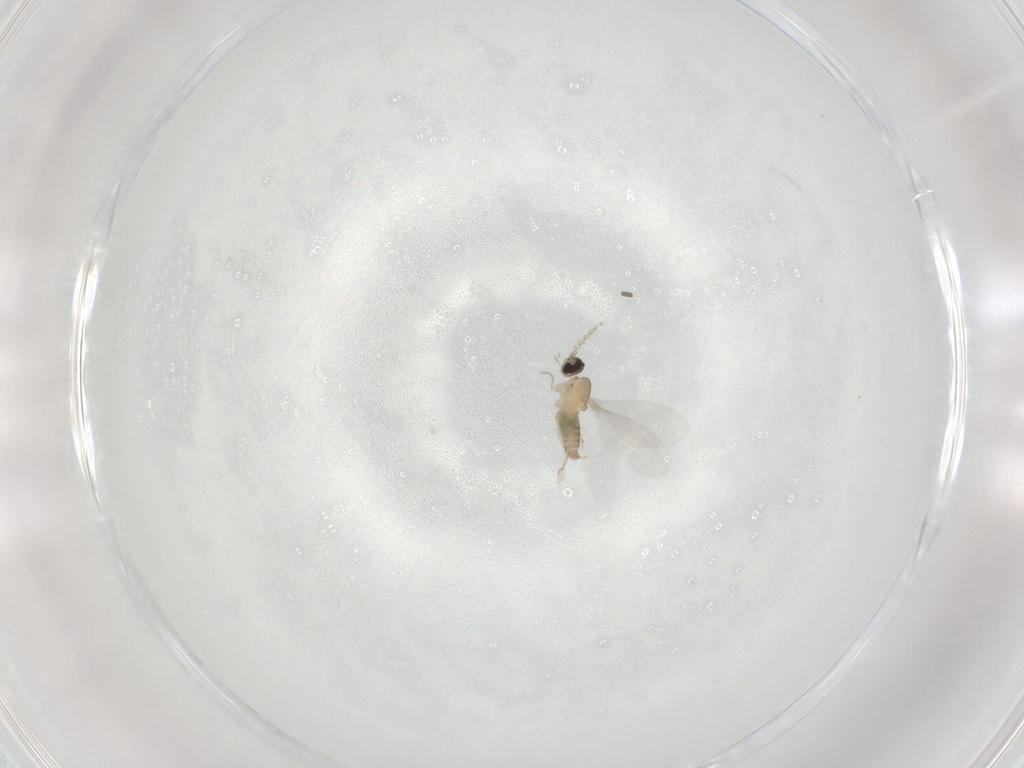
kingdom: Animalia
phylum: Arthropoda
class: Insecta
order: Diptera
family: Cecidomyiidae
